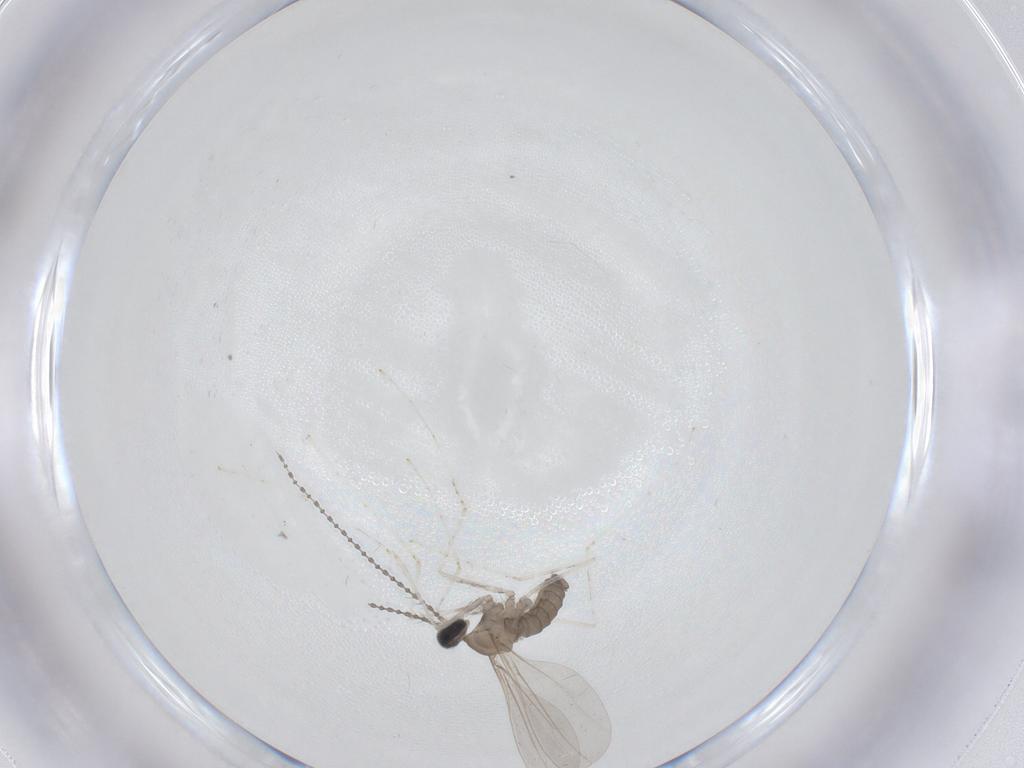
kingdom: Animalia
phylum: Arthropoda
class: Insecta
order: Diptera
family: Cecidomyiidae
